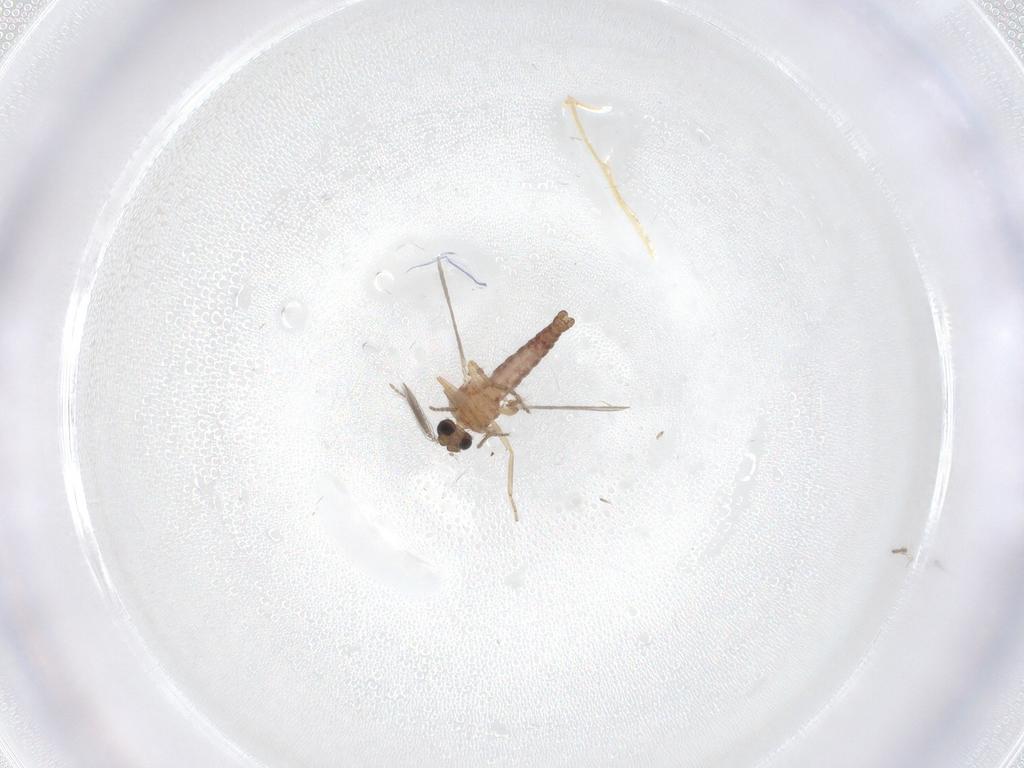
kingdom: Animalia
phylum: Arthropoda
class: Insecta
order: Diptera
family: Ceratopogonidae
